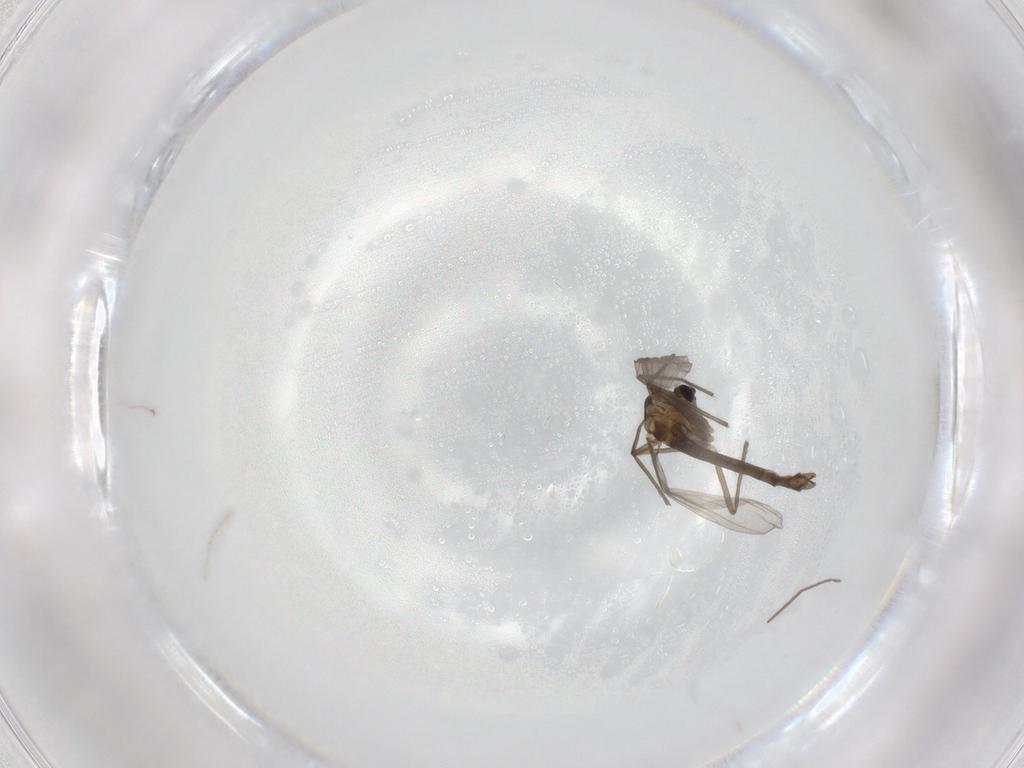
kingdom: Animalia
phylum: Arthropoda
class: Insecta
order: Diptera
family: Chironomidae
